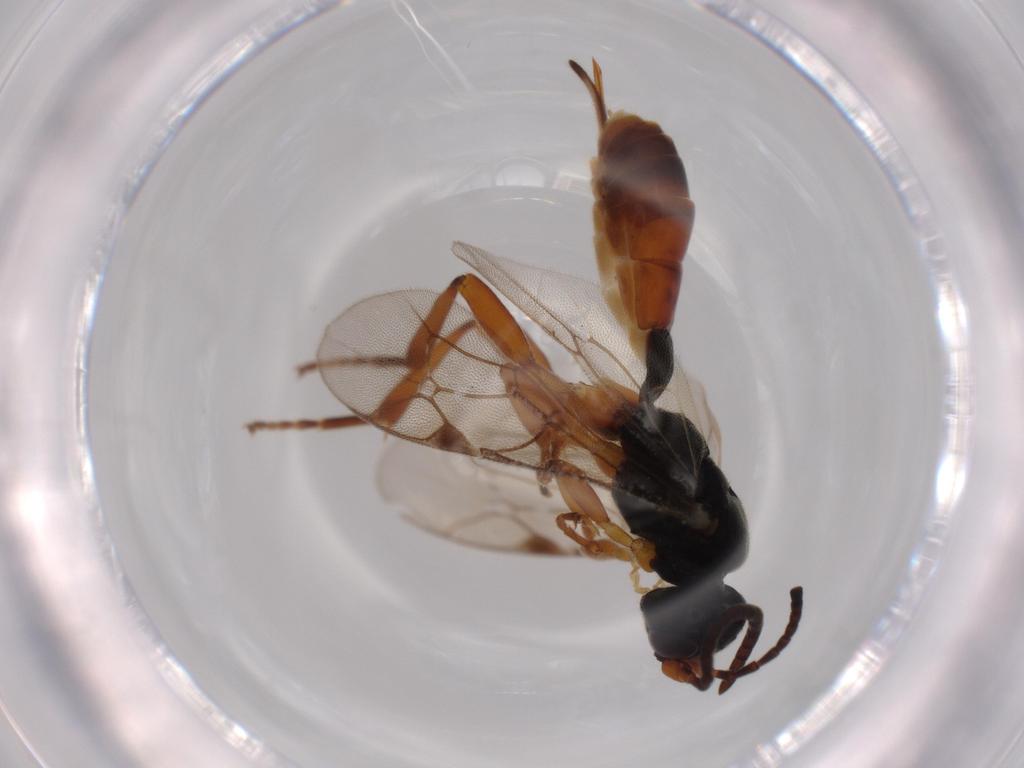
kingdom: Animalia
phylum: Arthropoda
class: Insecta
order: Hymenoptera
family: Ichneumonidae
